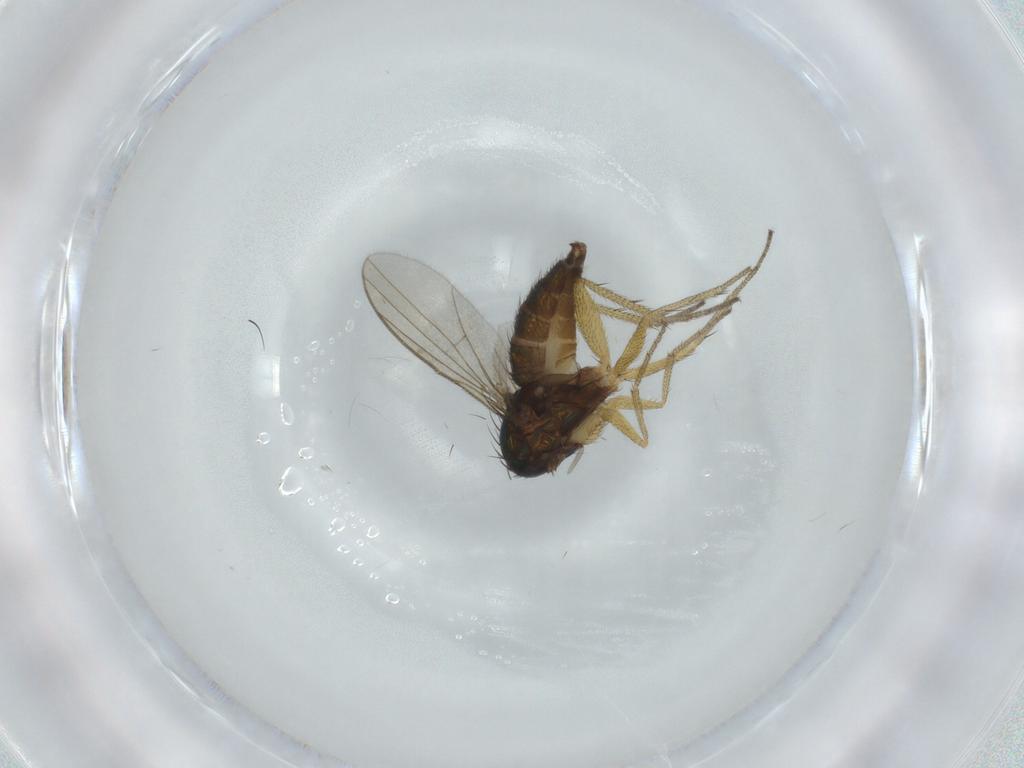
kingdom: Animalia
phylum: Arthropoda
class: Insecta
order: Diptera
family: Dolichopodidae
